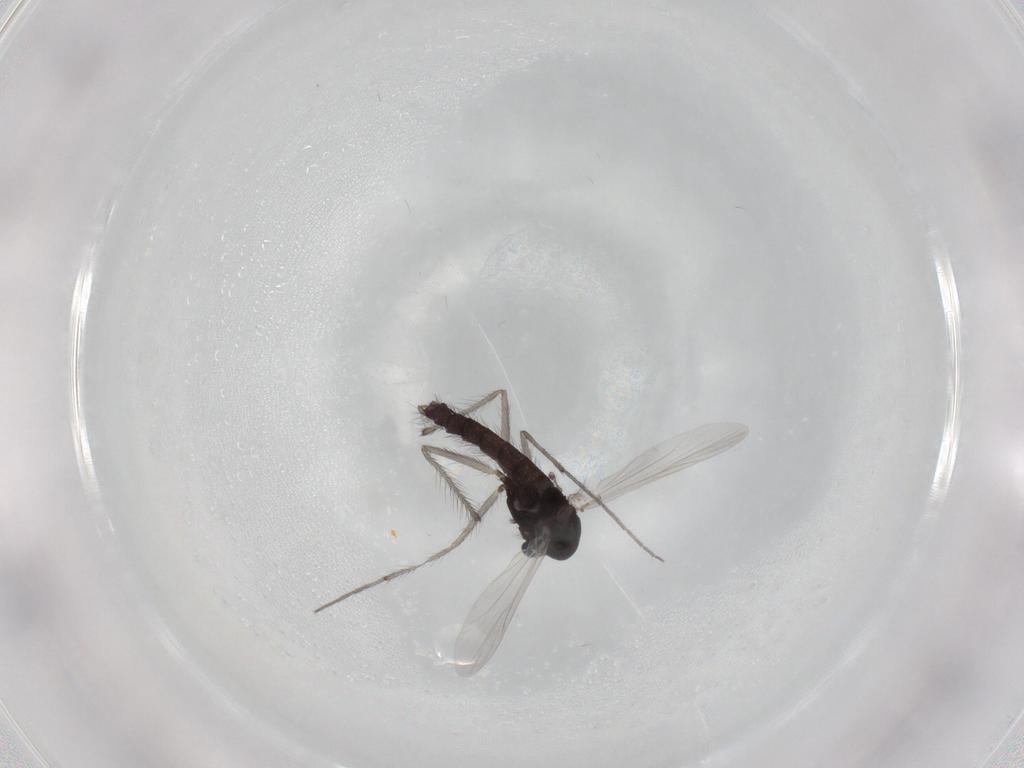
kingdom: Animalia
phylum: Arthropoda
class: Insecta
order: Diptera
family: Chironomidae
